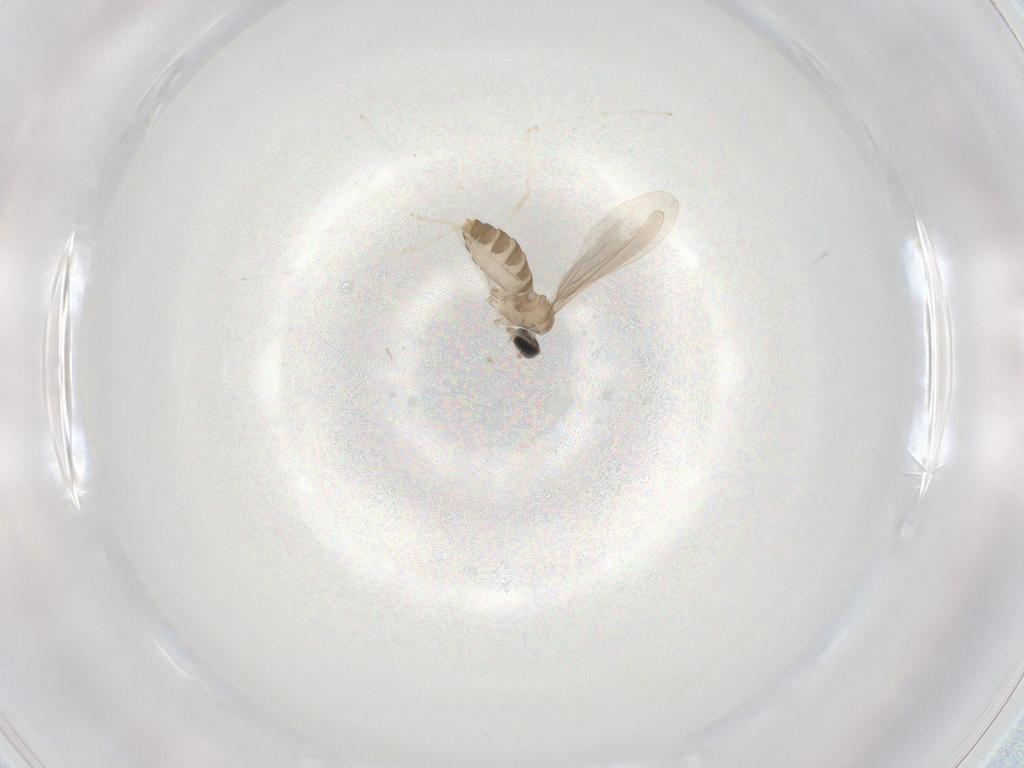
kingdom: Animalia
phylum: Arthropoda
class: Insecta
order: Diptera
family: Cecidomyiidae
